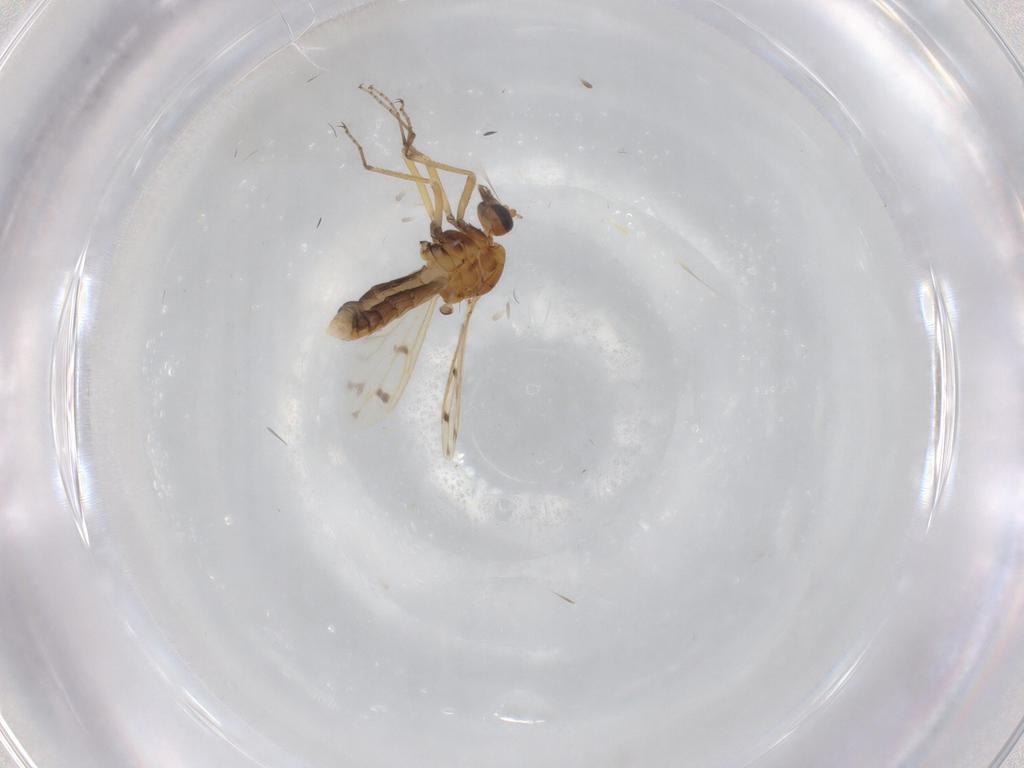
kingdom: Animalia
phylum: Arthropoda
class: Insecta
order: Diptera
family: Ceratopogonidae
